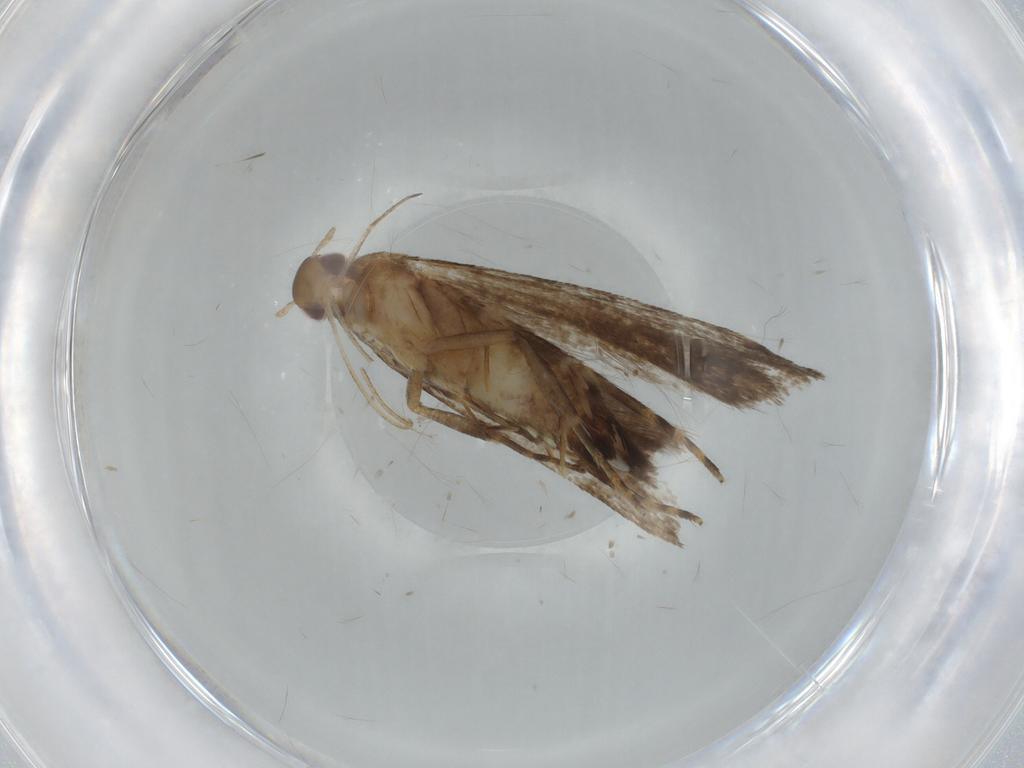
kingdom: Animalia
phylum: Arthropoda
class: Insecta
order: Lepidoptera
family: Gelechiidae
